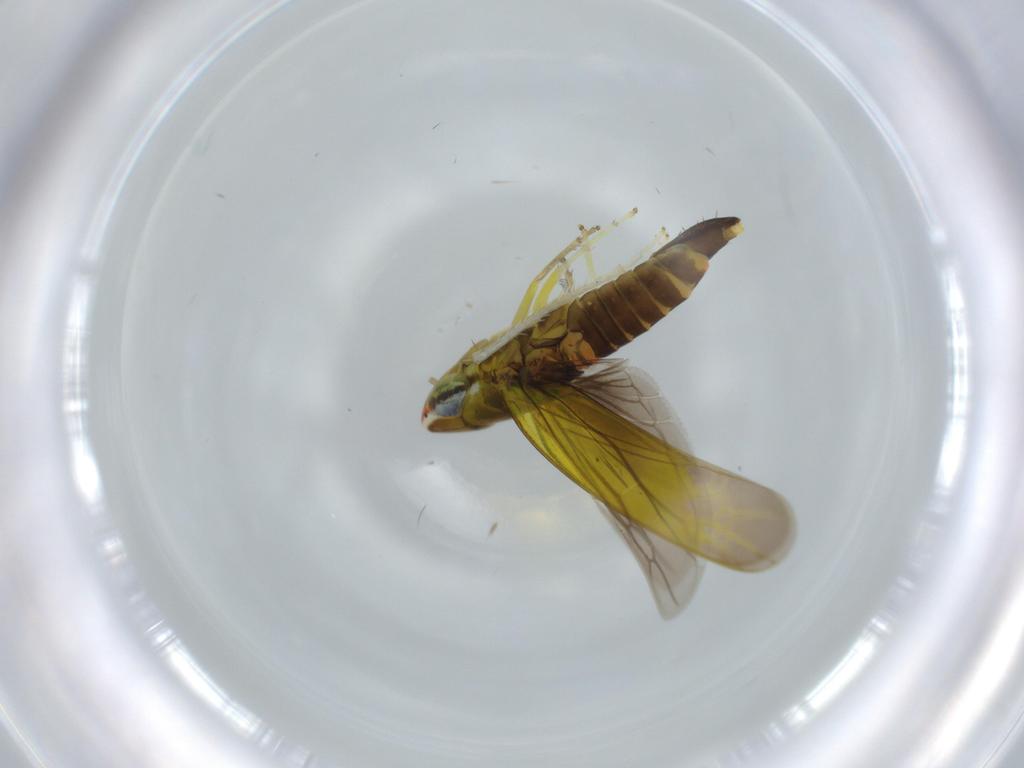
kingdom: Animalia
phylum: Arthropoda
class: Insecta
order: Hemiptera
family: Cicadellidae
